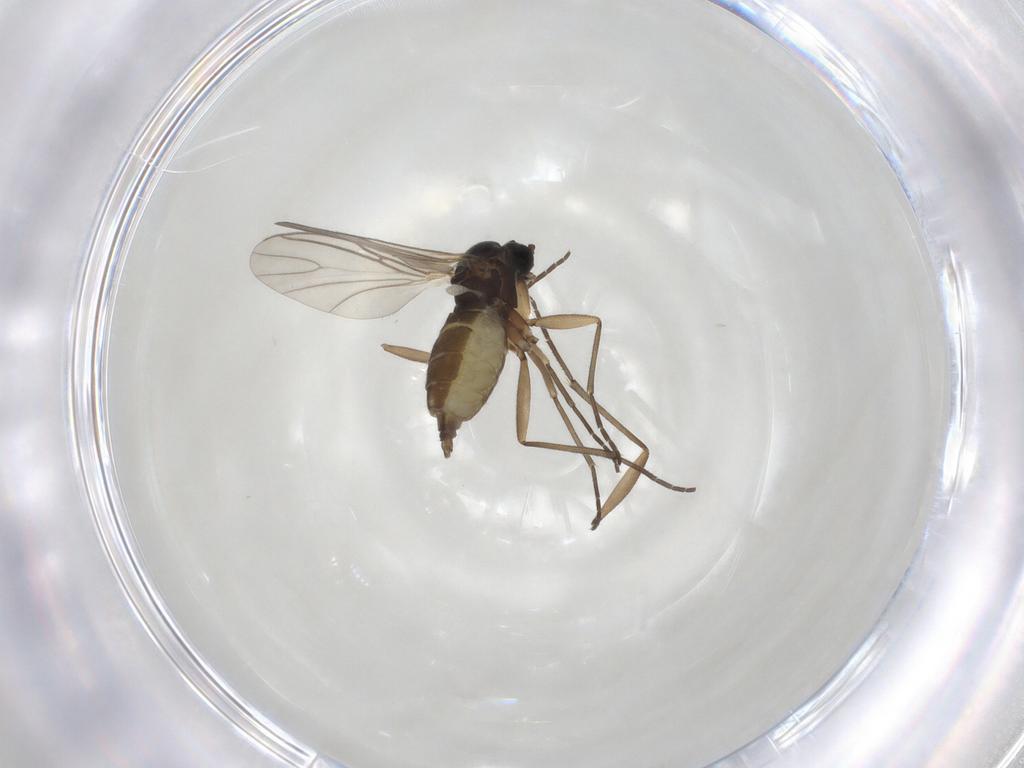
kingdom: Animalia
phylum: Arthropoda
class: Insecta
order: Diptera
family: Sciaridae
